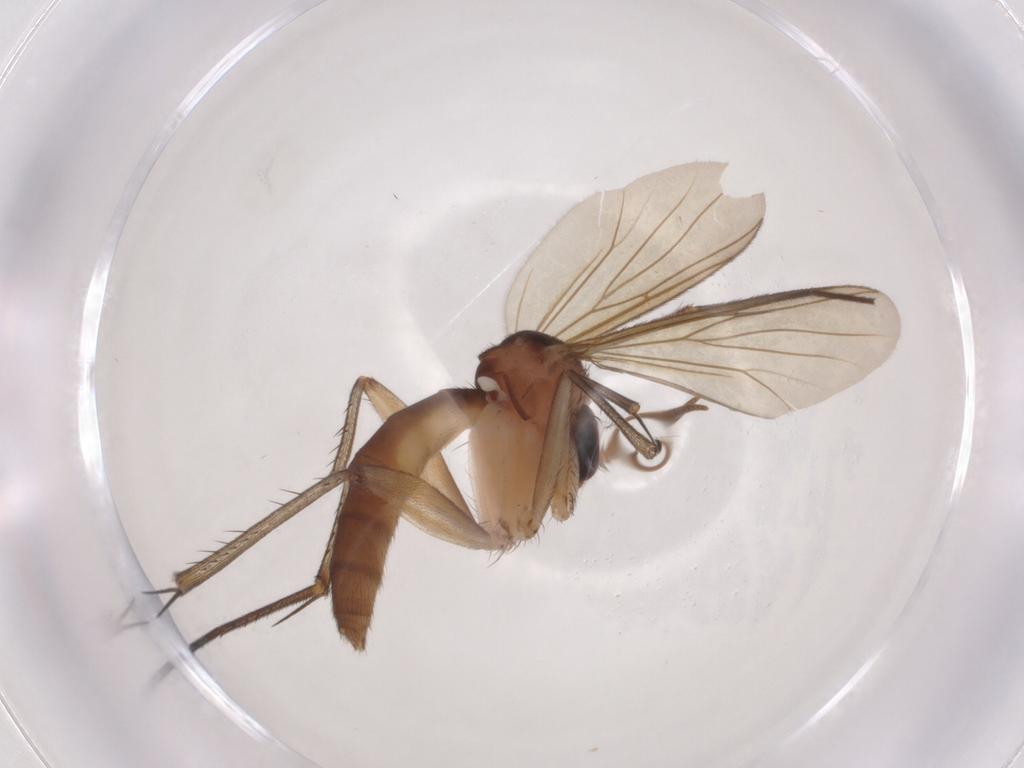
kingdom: Animalia
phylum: Arthropoda
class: Insecta
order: Diptera
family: Mycetophilidae
